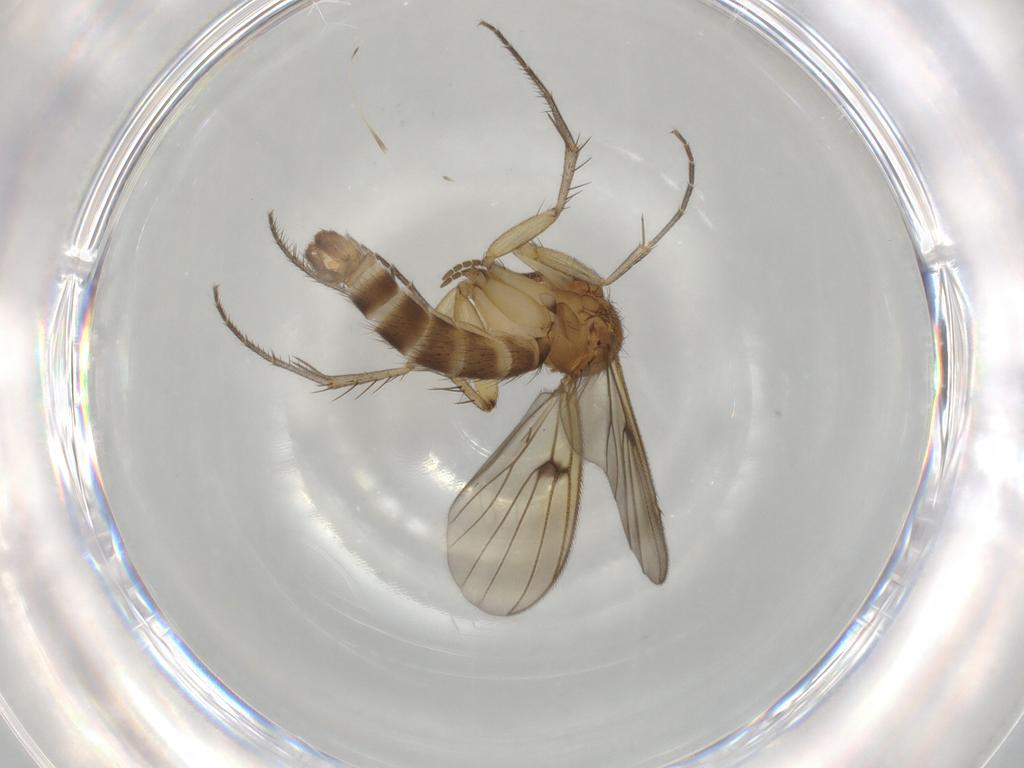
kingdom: Animalia
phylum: Arthropoda
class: Insecta
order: Diptera
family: Mycetophilidae
